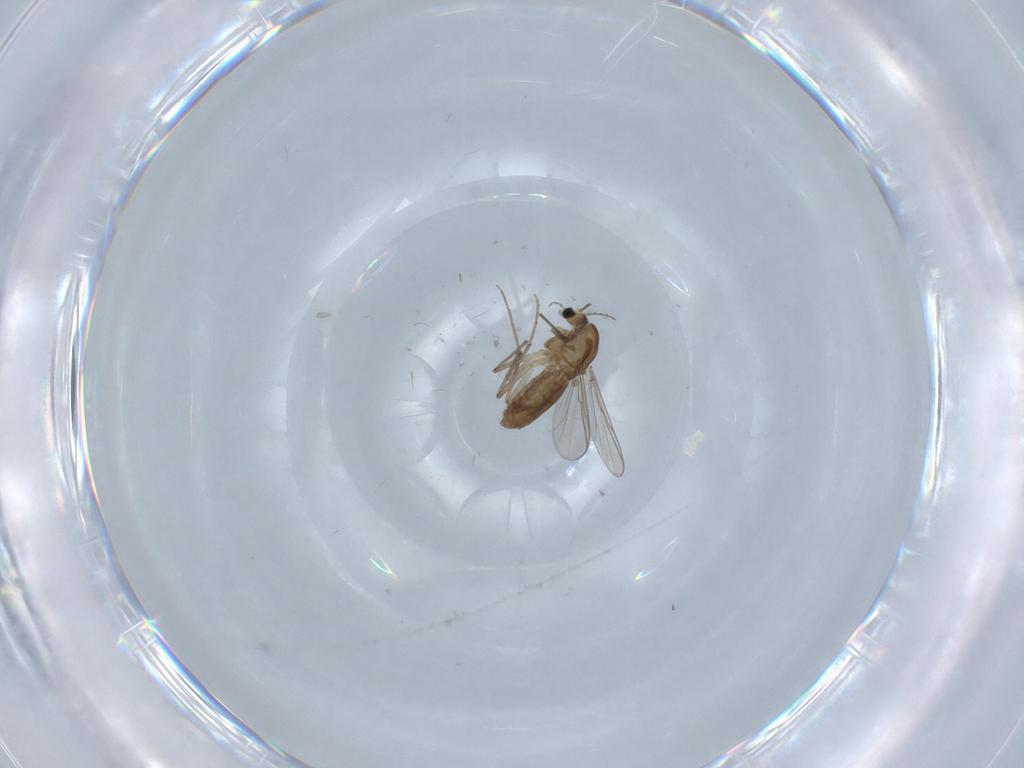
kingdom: Animalia
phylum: Arthropoda
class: Insecta
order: Diptera
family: Chironomidae
